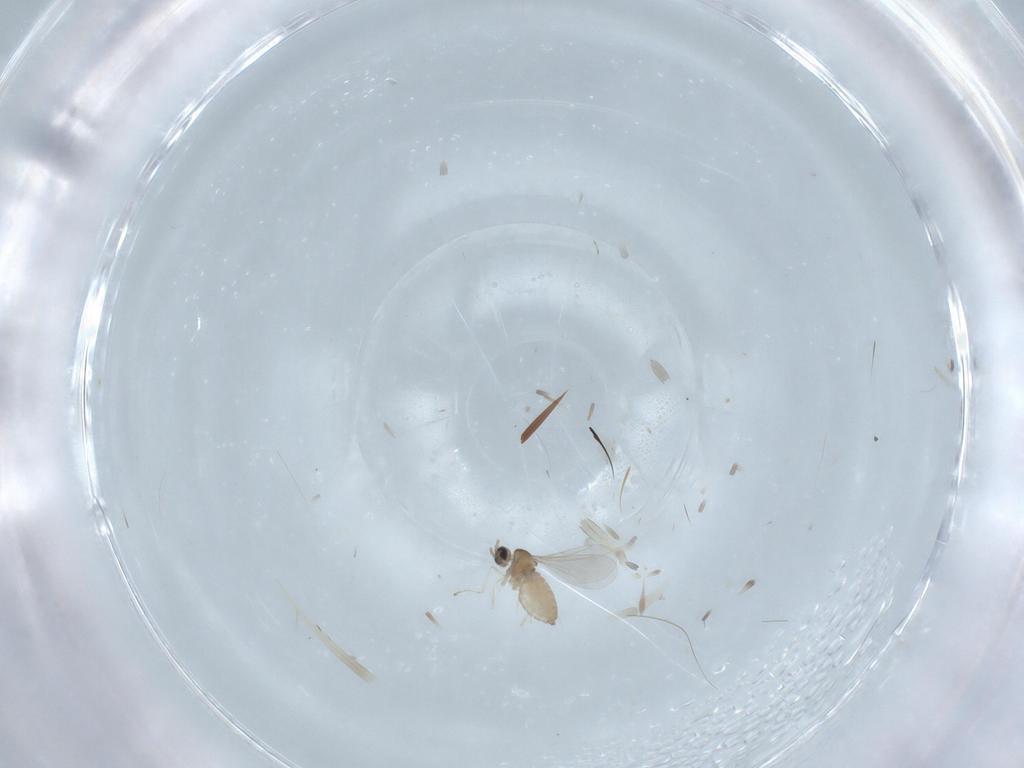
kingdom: Animalia
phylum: Arthropoda
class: Insecta
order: Diptera
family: Chironomidae
